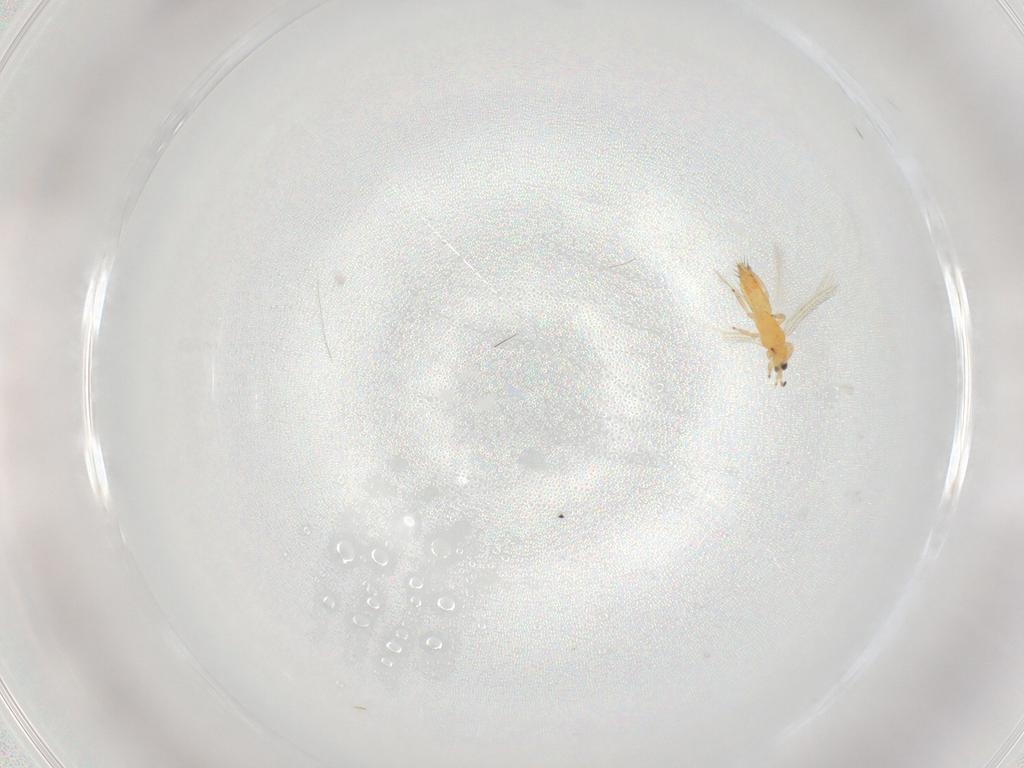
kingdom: Animalia
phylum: Arthropoda
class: Insecta
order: Thysanoptera
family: Thripidae
